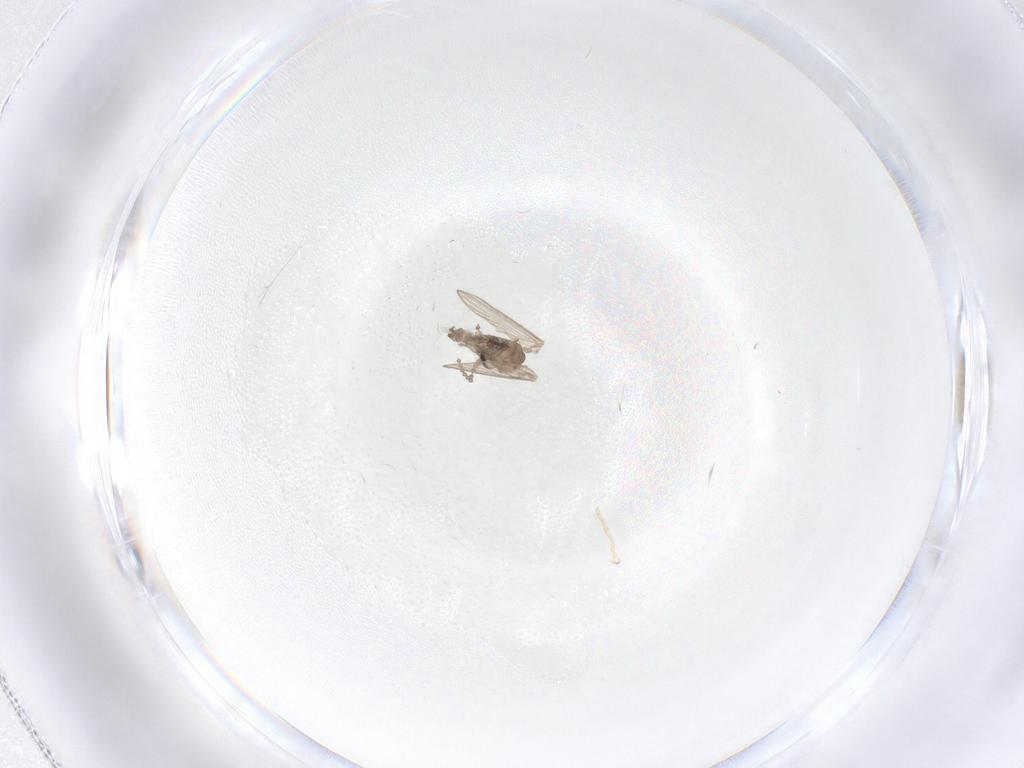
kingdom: Animalia
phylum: Arthropoda
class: Insecta
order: Diptera
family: Psychodidae
